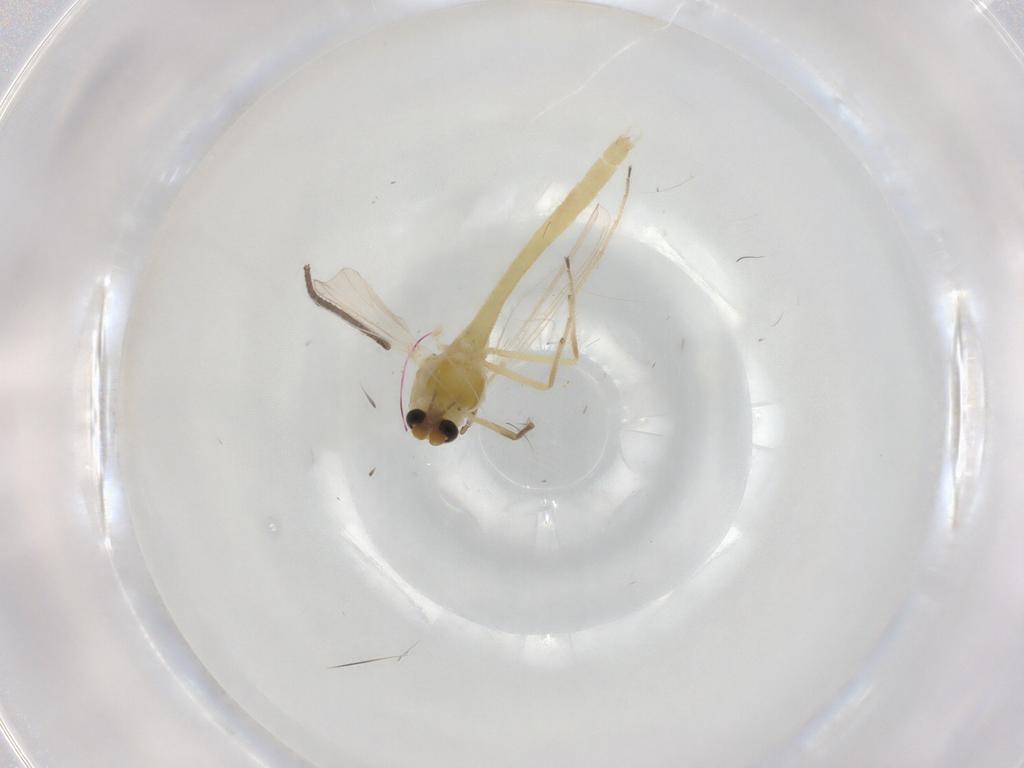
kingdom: Animalia
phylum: Arthropoda
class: Insecta
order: Diptera
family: Chironomidae
